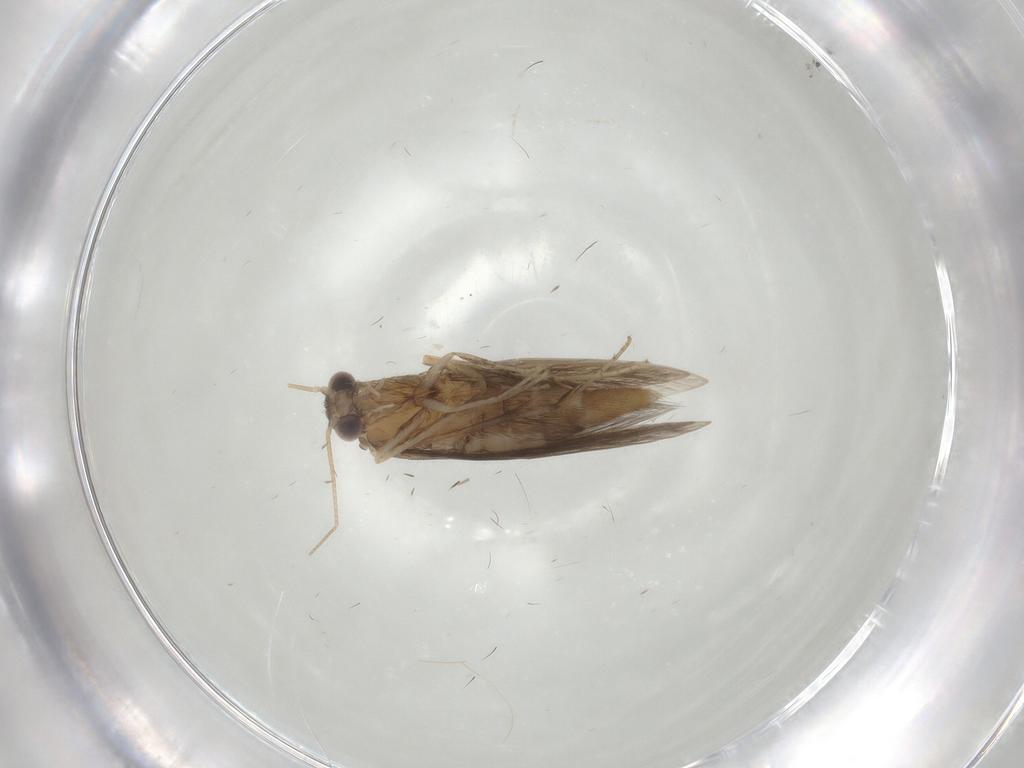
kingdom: Animalia
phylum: Arthropoda
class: Insecta
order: Trichoptera
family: Hydroptilidae
